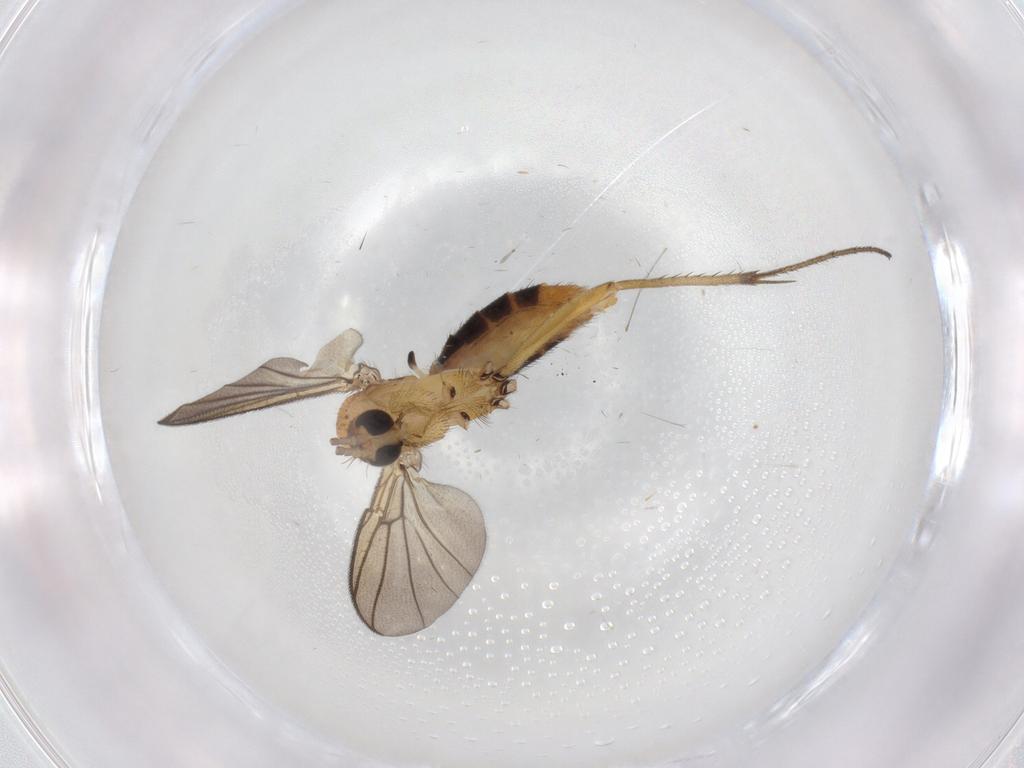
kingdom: Animalia
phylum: Arthropoda
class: Insecta
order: Diptera
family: Mycetophilidae
